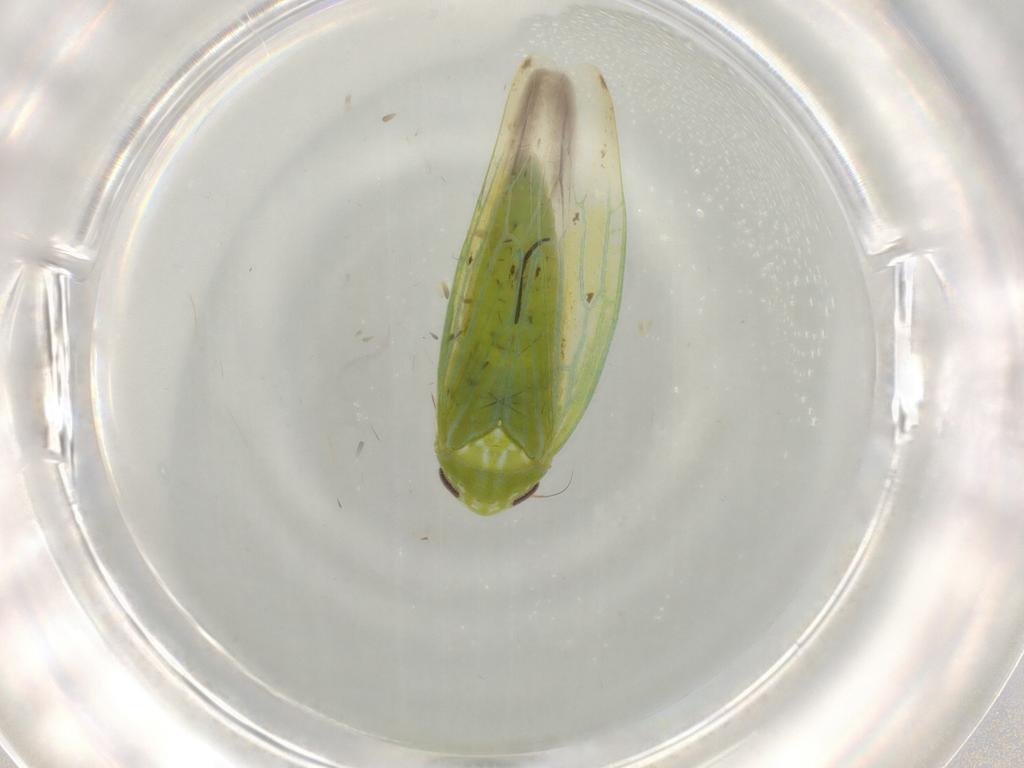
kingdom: Animalia
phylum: Arthropoda
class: Insecta
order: Hemiptera
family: Cicadellidae
